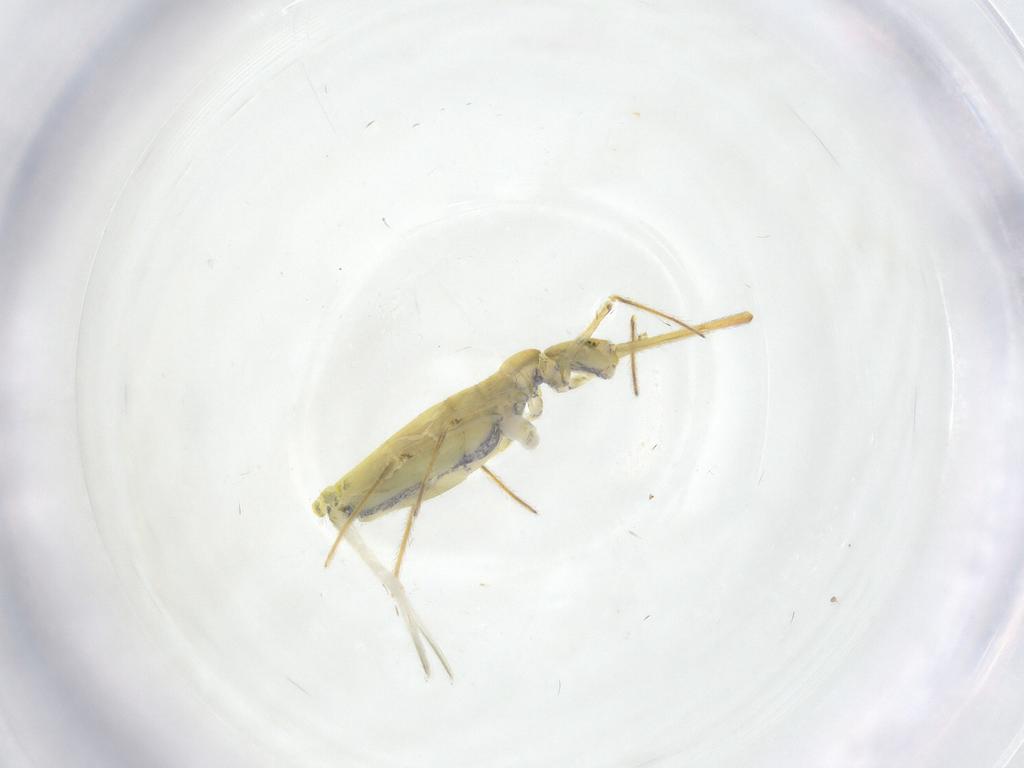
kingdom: Animalia
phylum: Arthropoda
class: Collembola
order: Entomobryomorpha
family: Entomobryidae
